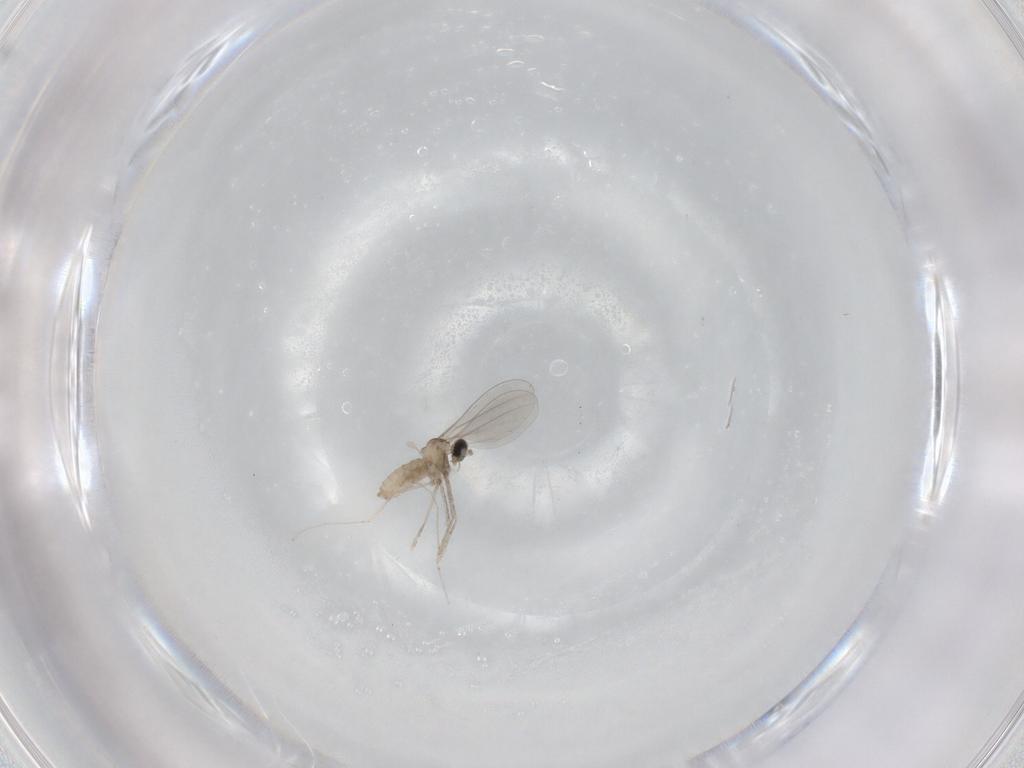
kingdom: Animalia
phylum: Arthropoda
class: Insecta
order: Diptera
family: Cecidomyiidae
